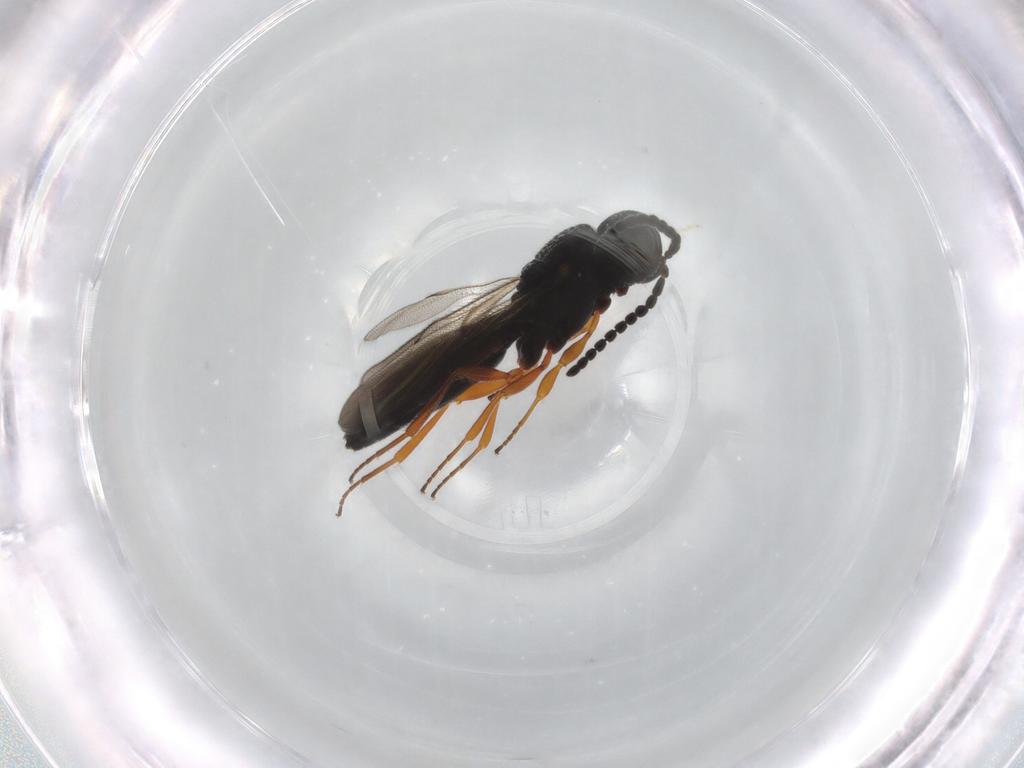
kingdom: Animalia
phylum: Arthropoda
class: Insecta
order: Hymenoptera
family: Bethylidae
